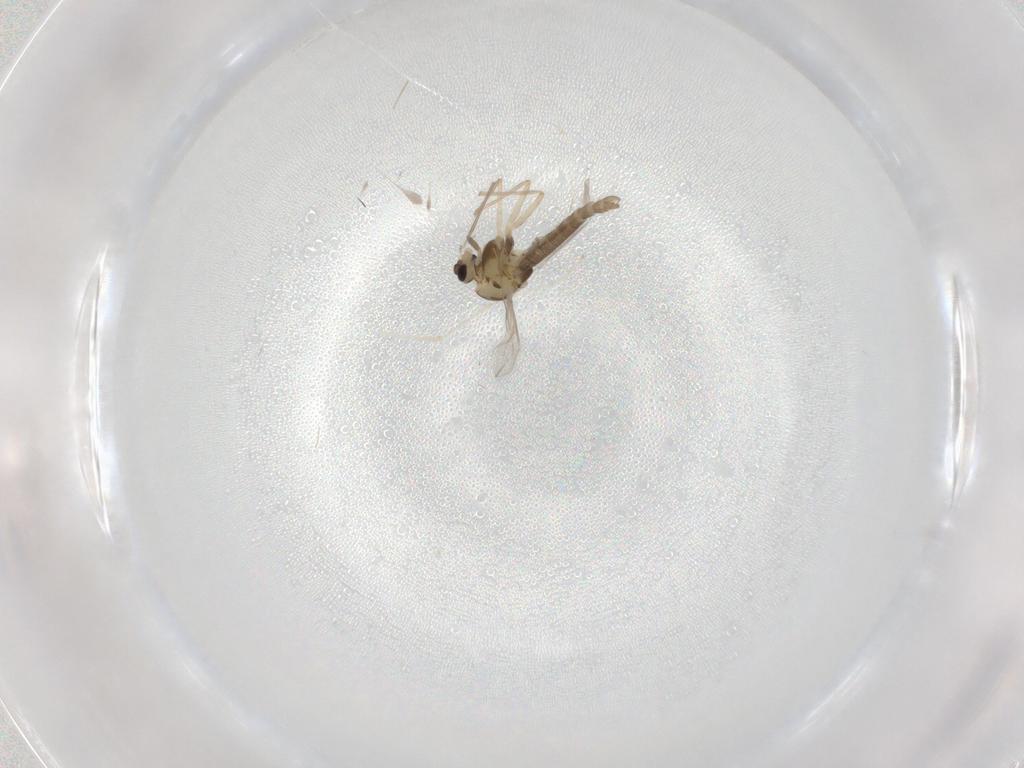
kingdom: Animalia
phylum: Arthropoda
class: Insecta
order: Diptera
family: Chironomidae
